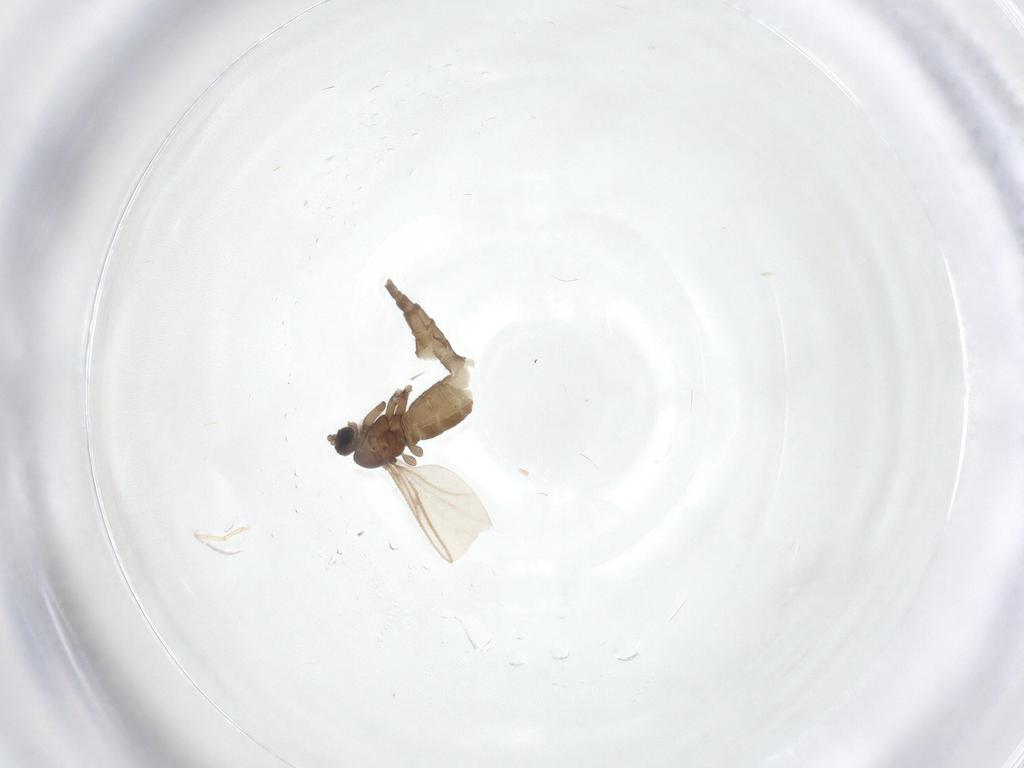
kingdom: Animalia
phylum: Arthropoda
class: Insecta
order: Diptera
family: Sciaridae
